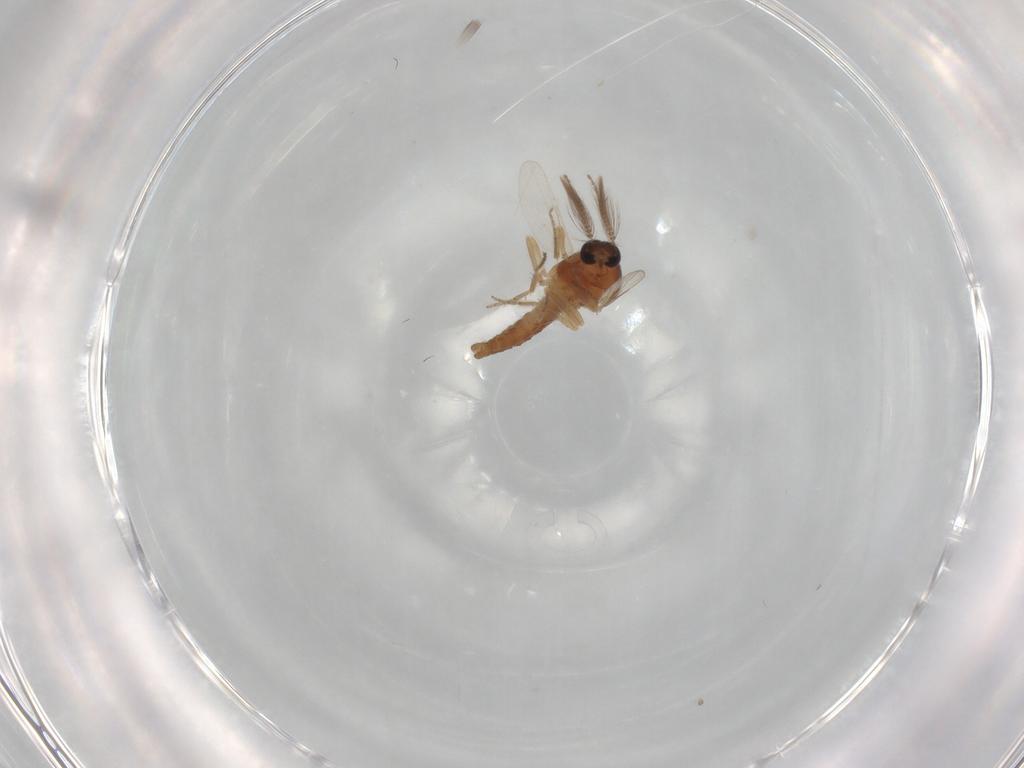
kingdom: Animalia
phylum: Arthropoda
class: Insecta
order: Diptera
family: Ceratopogonidae
